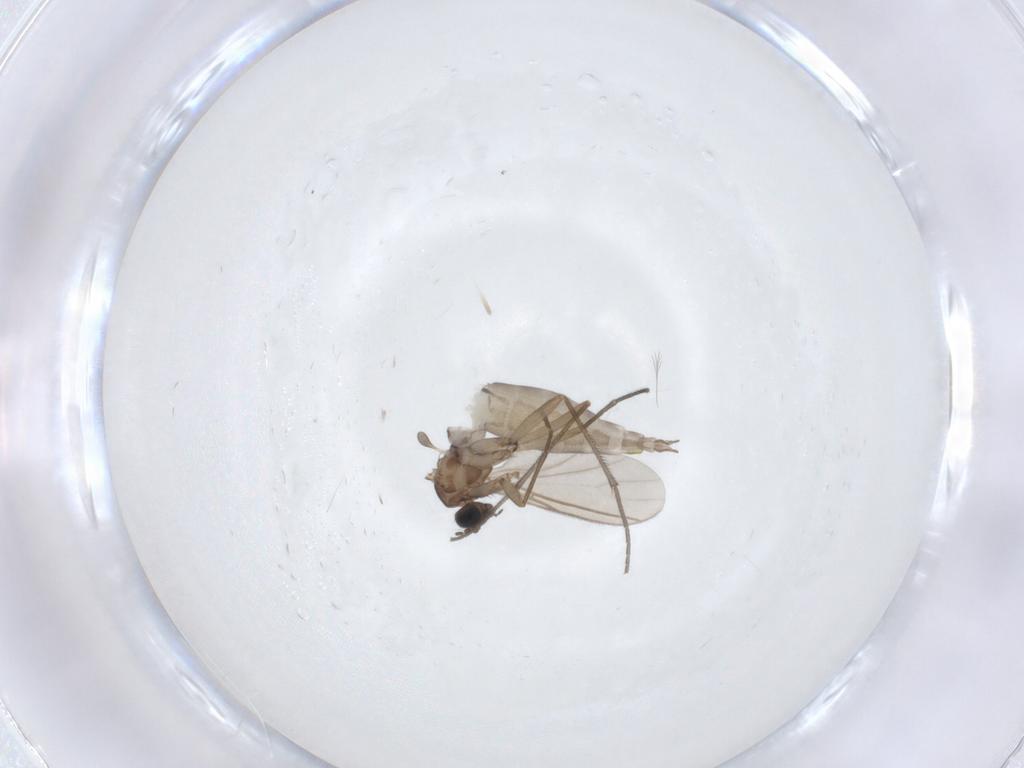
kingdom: Animalia
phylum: Arthropoda
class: Insecta
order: Diptera
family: Sciaridae
